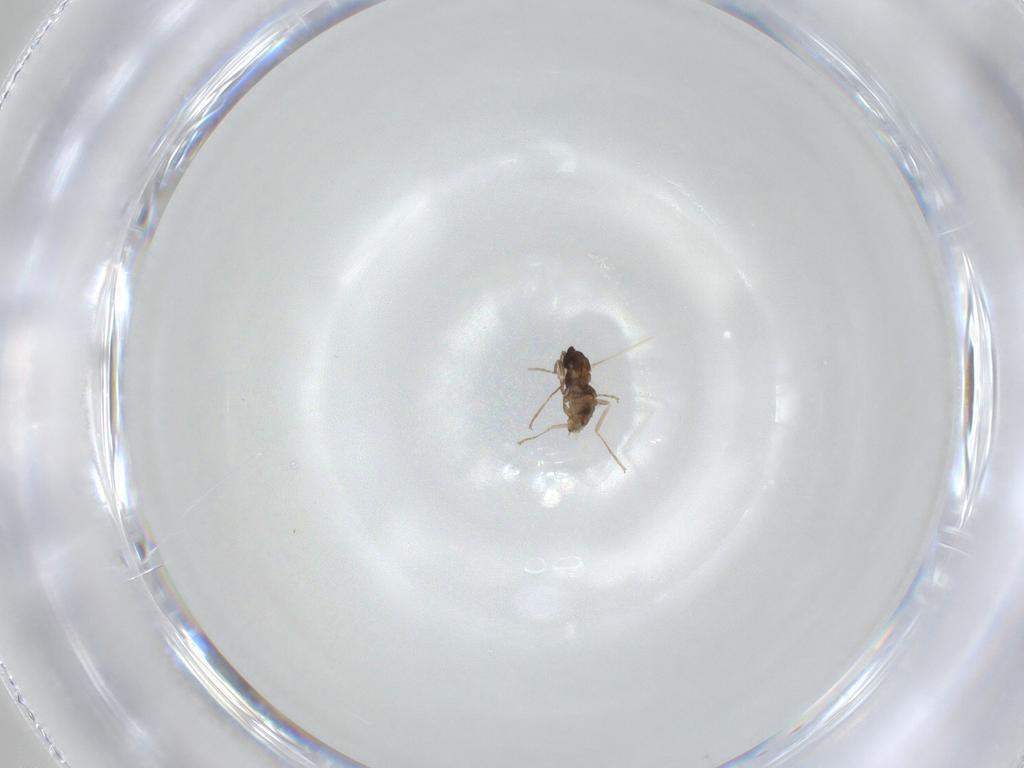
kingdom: Animalia
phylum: Arthropoda
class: Insecta
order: Diptera
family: Cecidomyiidae
